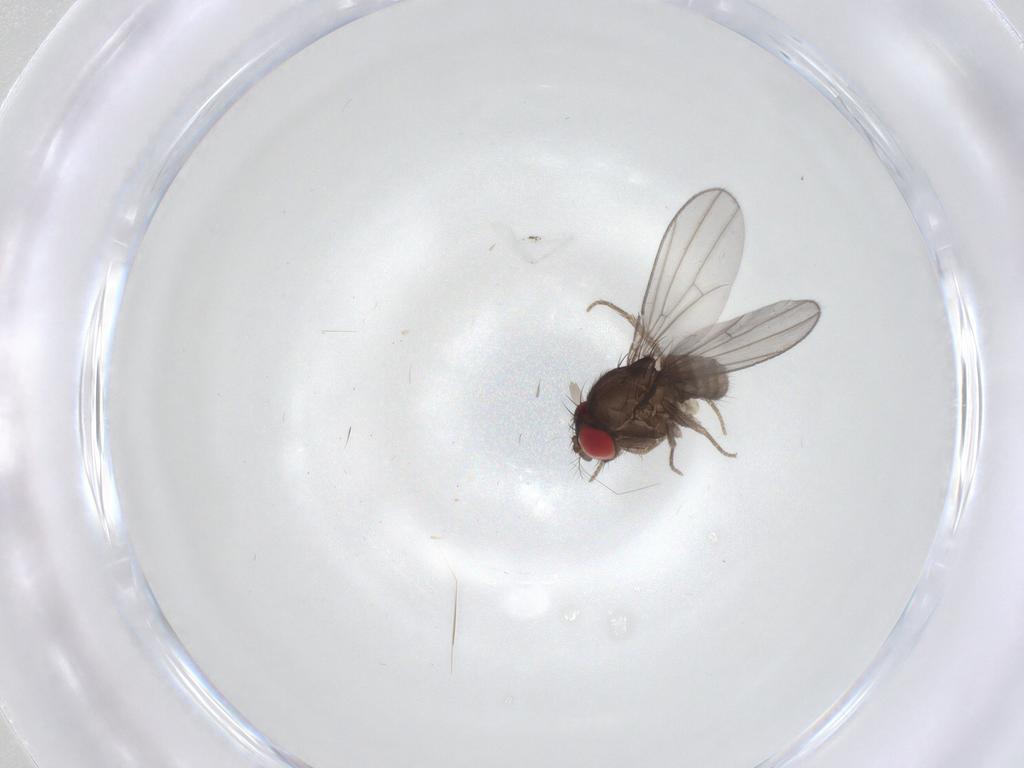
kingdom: Animalia
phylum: Arthropoda
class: Insecta
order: Diptera
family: Drosophilidae
